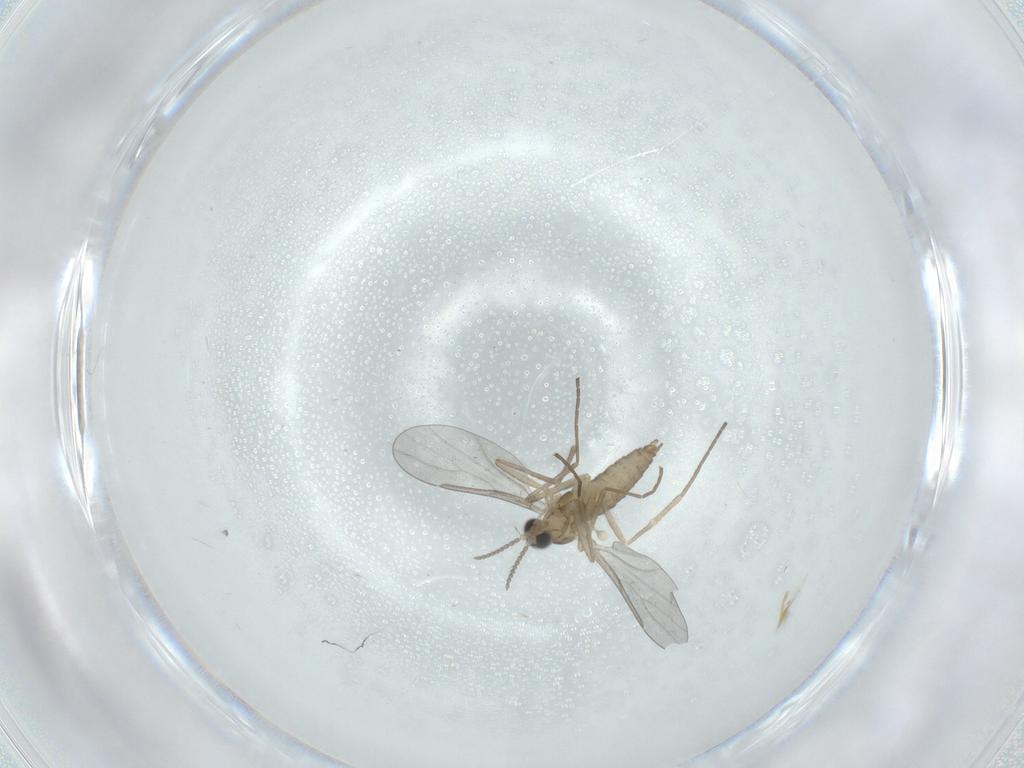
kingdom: Animalia
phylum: Arthropoda
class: Insecta
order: Diptera
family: Cecidomyiidae
